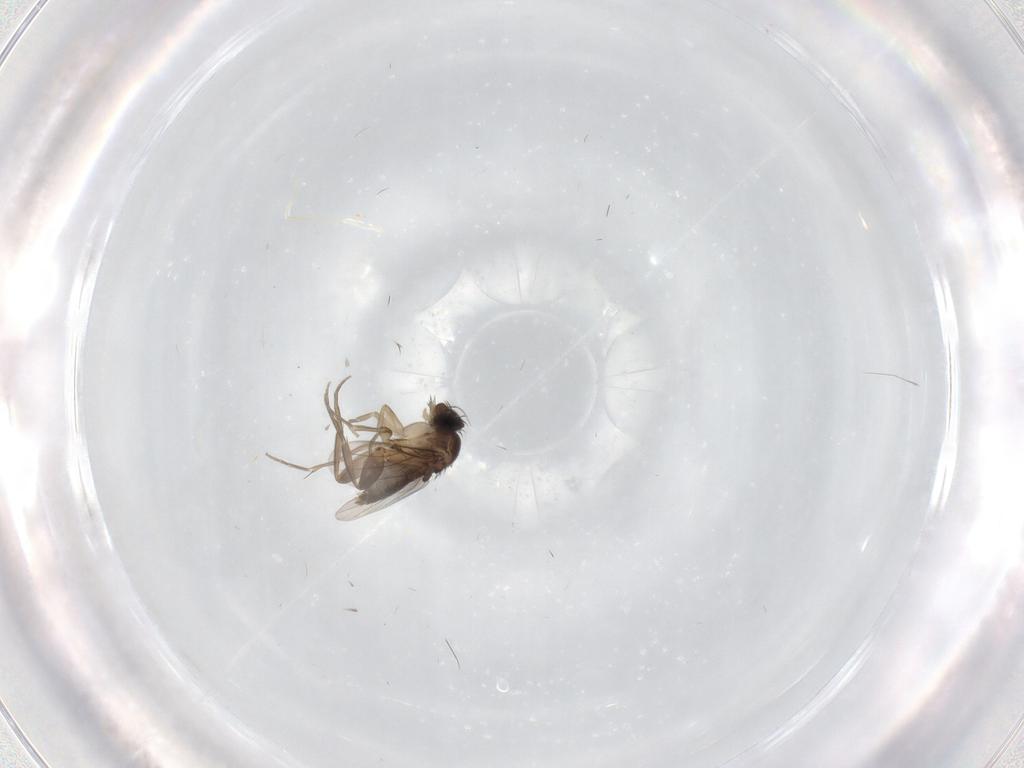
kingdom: Animalia
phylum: Arthropoda
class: Insecta
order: Diptera
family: Phoridae
